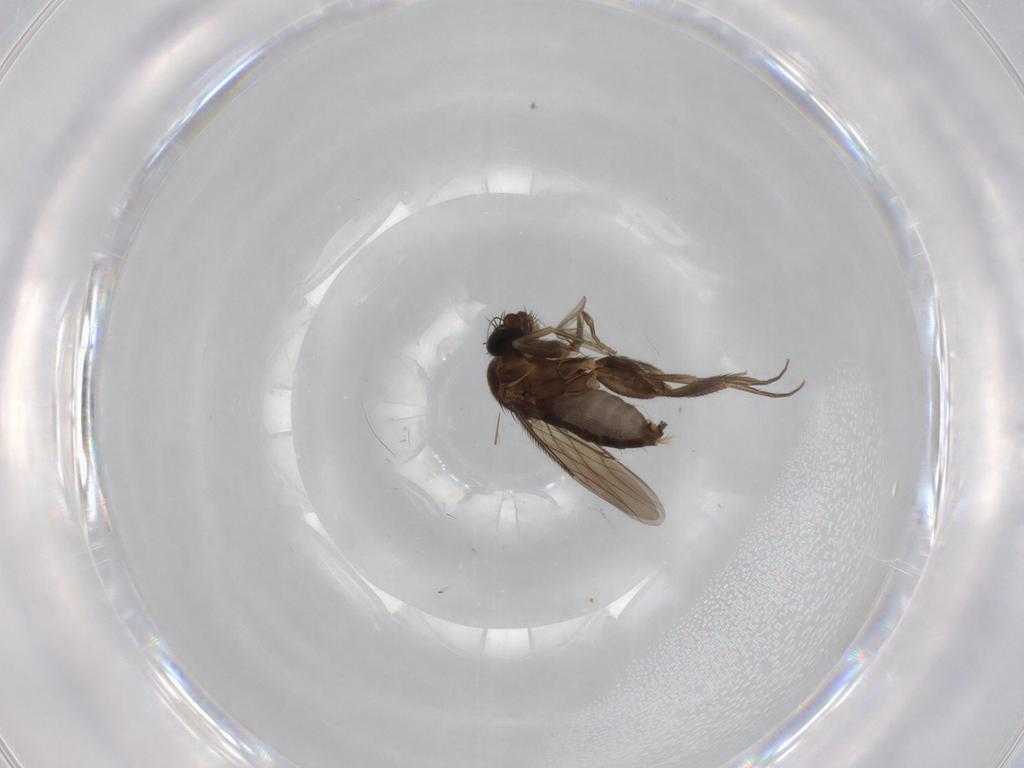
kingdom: Animalia
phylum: Arthropoda
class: Insecta
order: Diptera
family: Phoridae
